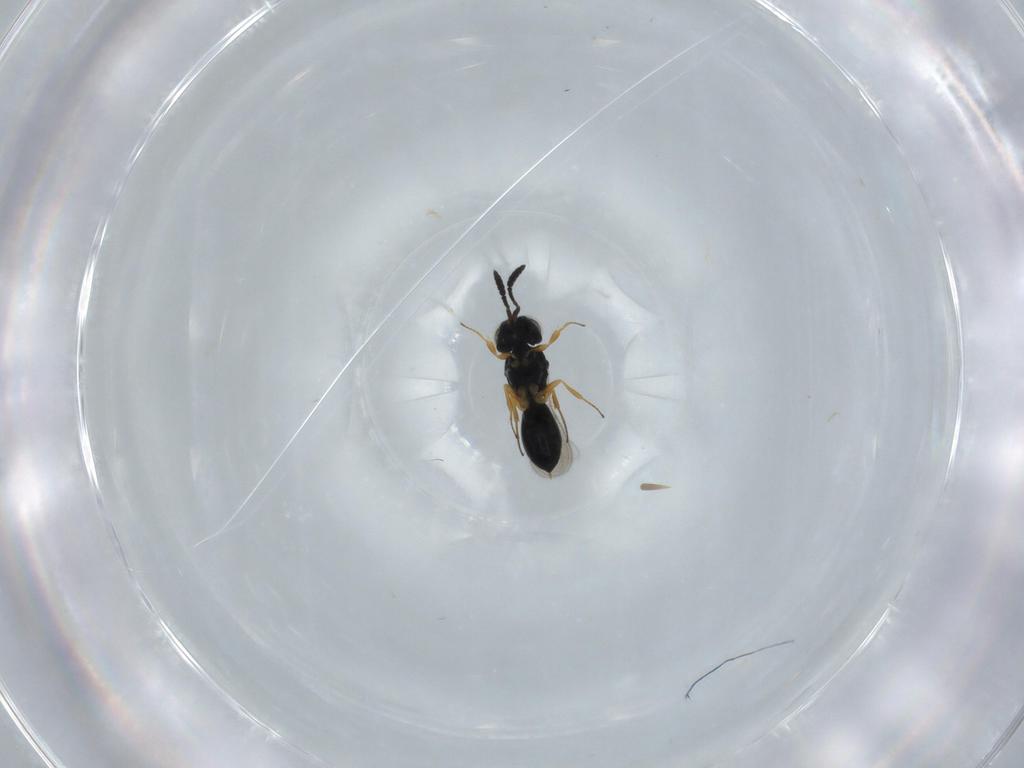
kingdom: Animalia
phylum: Arthropoda
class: Insecta
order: Hymenoptera
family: Scelionidae
